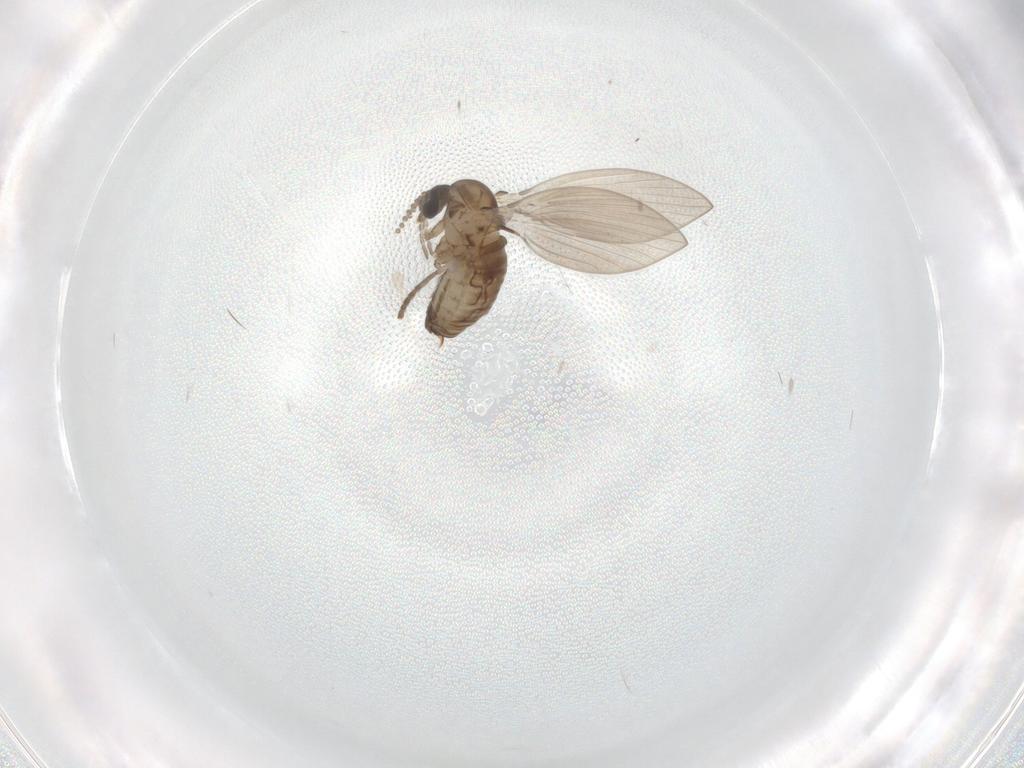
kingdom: Animalia
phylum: Arthropoda
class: Insecta
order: Diptera
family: Psychodidae
